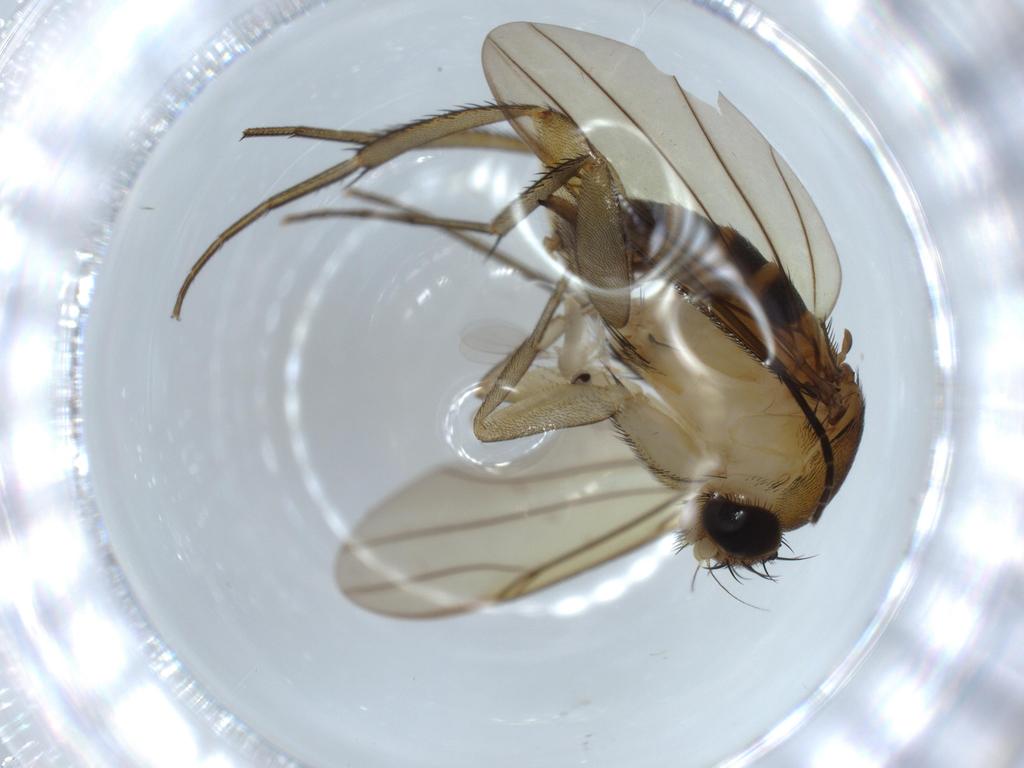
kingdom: Animalia
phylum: Arthropoda
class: Insecta
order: Diptera
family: Sciaridae
